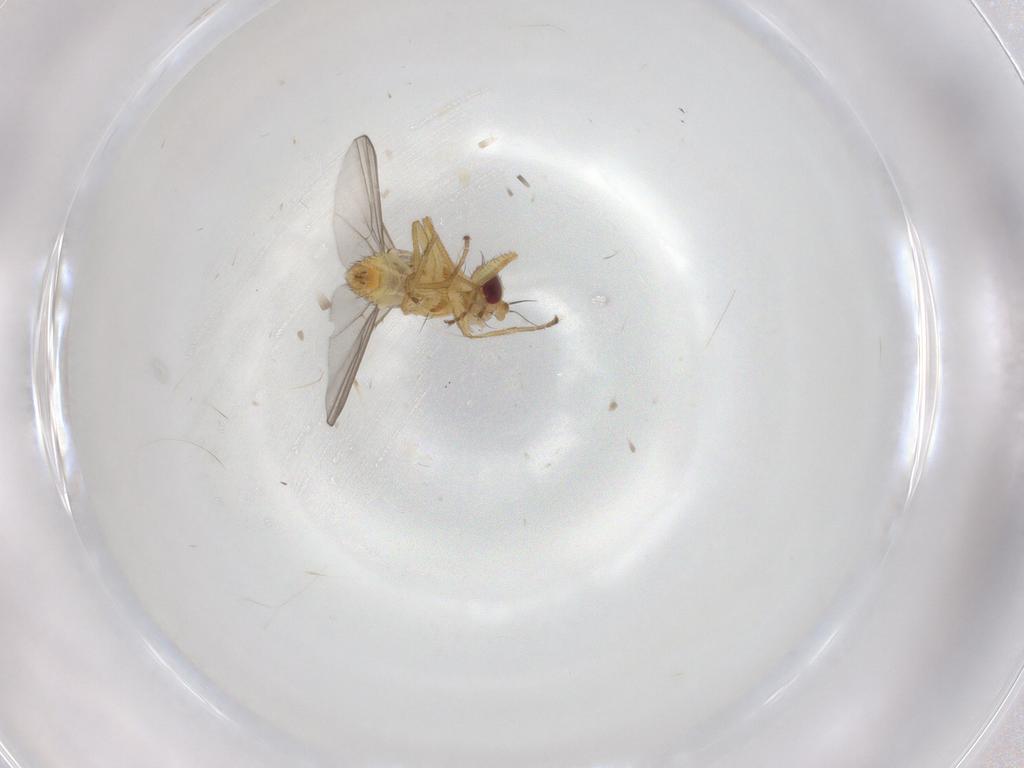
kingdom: Animalia
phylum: Arthropoda
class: Insecta
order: Diptera
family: Agromyzidae
